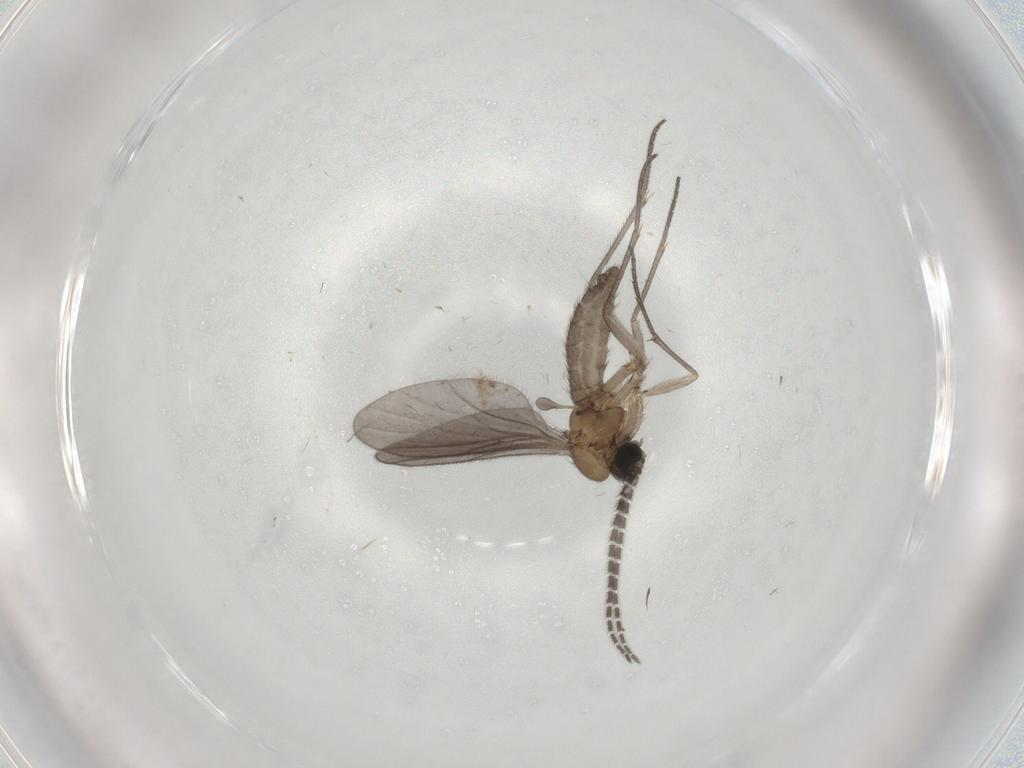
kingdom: Animalia
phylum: Arthropoda
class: Insecta
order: Diptera
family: Sciaridae
